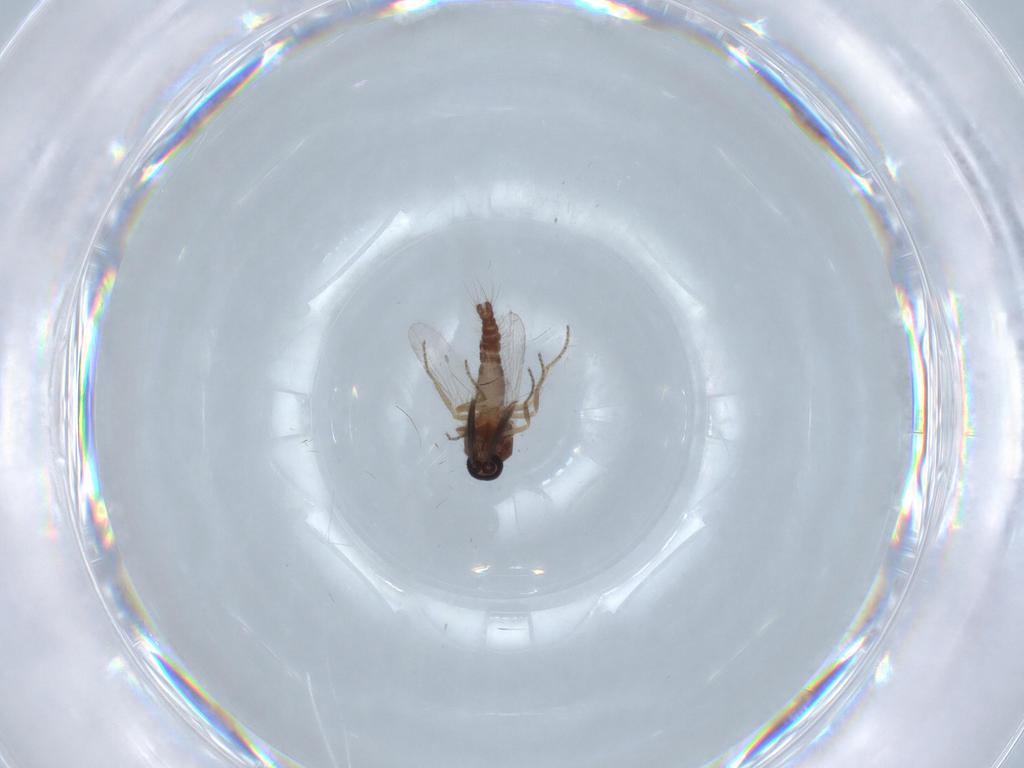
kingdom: Animalia
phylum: Arthropoda
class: Insecta
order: Diptera
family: Ceratopogonidae
